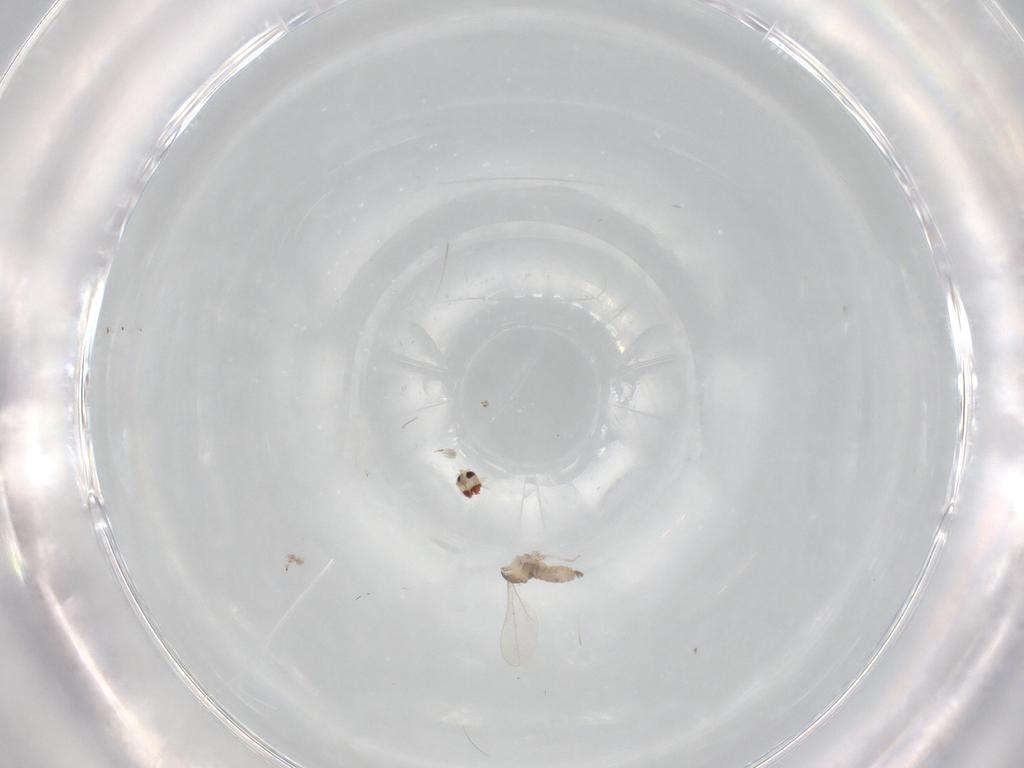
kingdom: Animalia
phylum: Arthropoda
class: Insecta
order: Diptera
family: Cecidomyiidae
